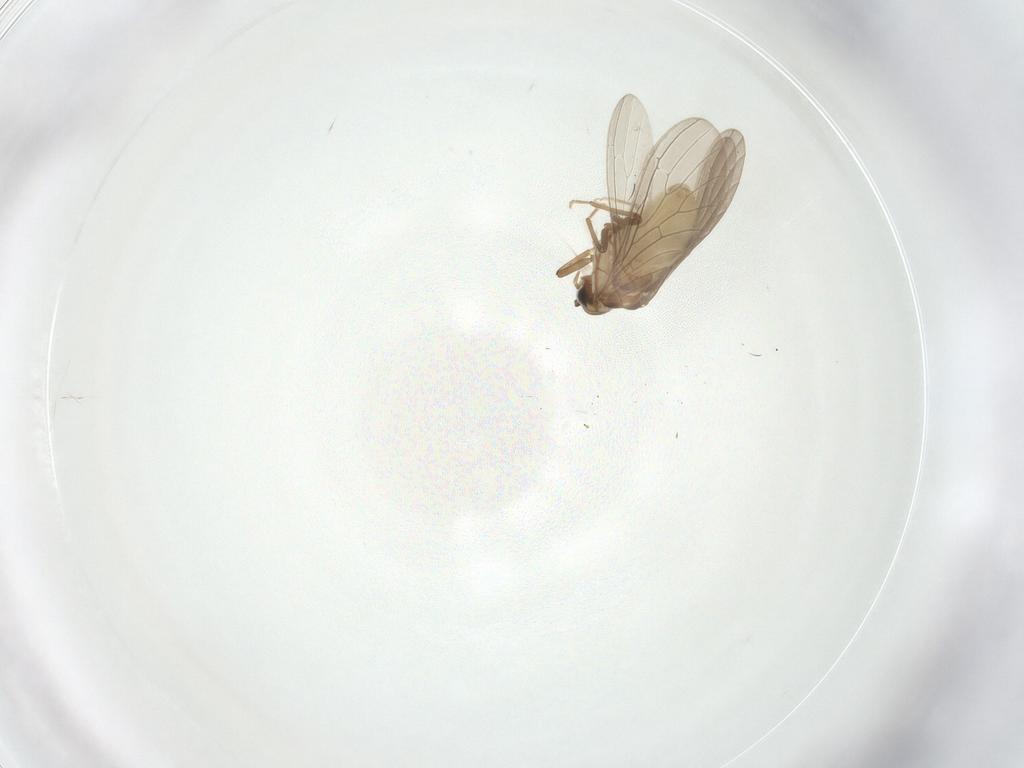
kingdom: Animalia
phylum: Arthropoda
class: Insecta
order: Neuroptera
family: Coniopterygidae
